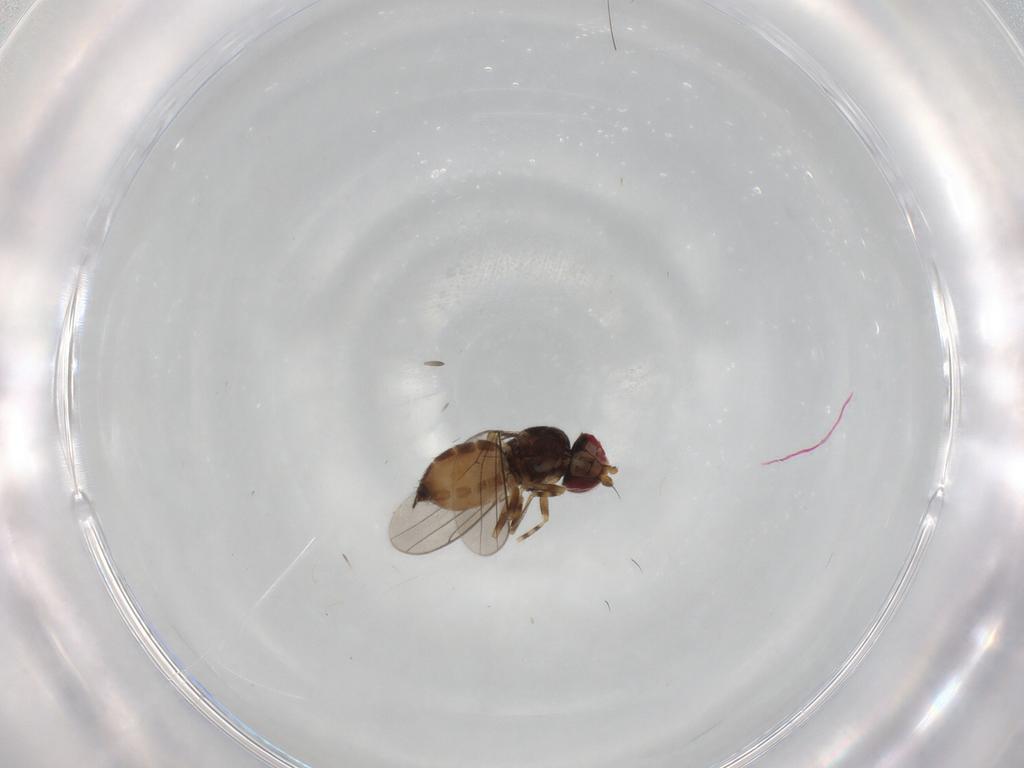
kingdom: Animalia
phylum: Arthropoda
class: Insecta
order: Diptera
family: Chloropidae
